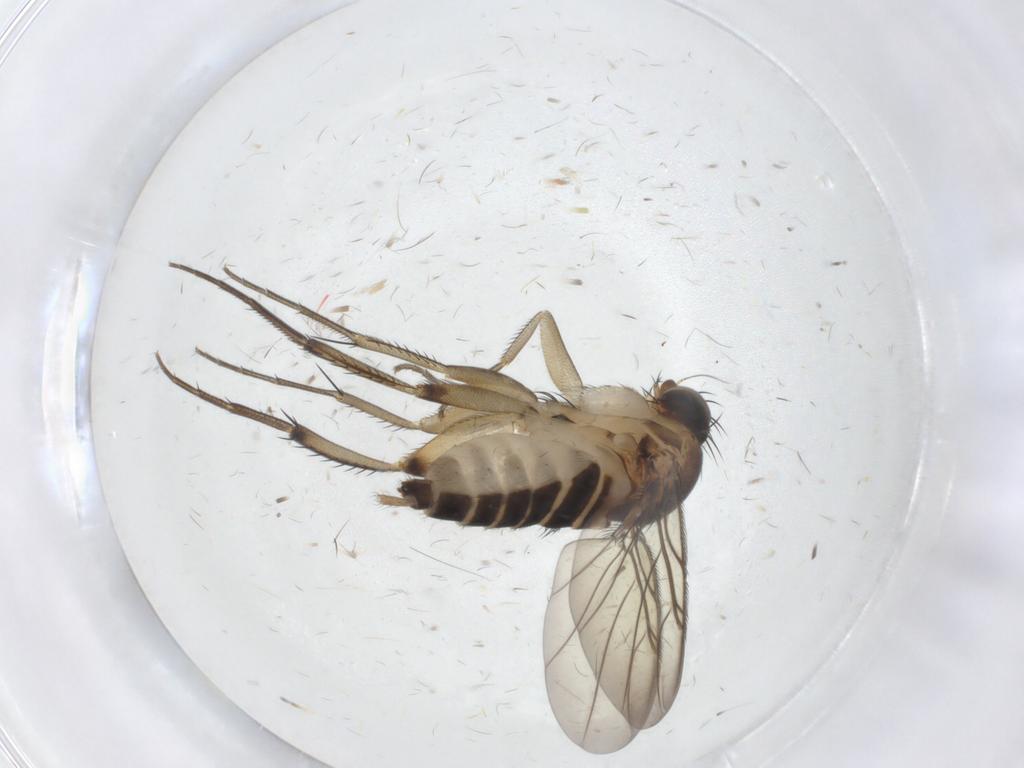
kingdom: Animalia
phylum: Arthropoda
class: Insecta
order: Diptera
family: Phoridae
